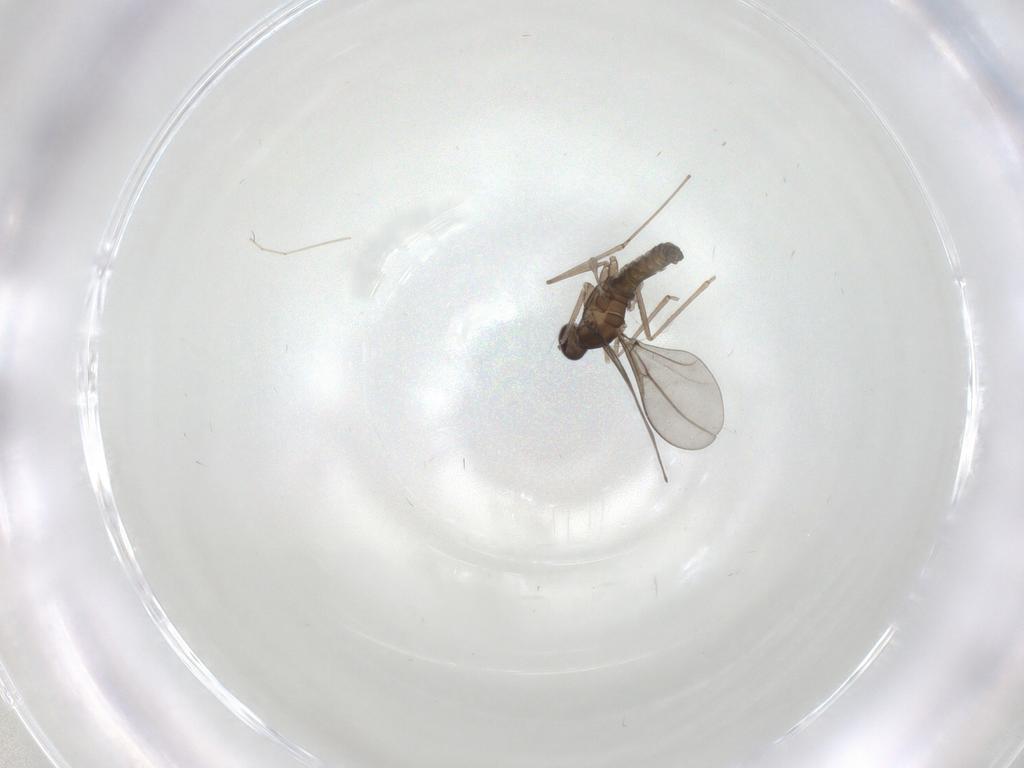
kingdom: Animalia
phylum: Arthropoda
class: Insecta
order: Diptera
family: Cecidomyiidae
